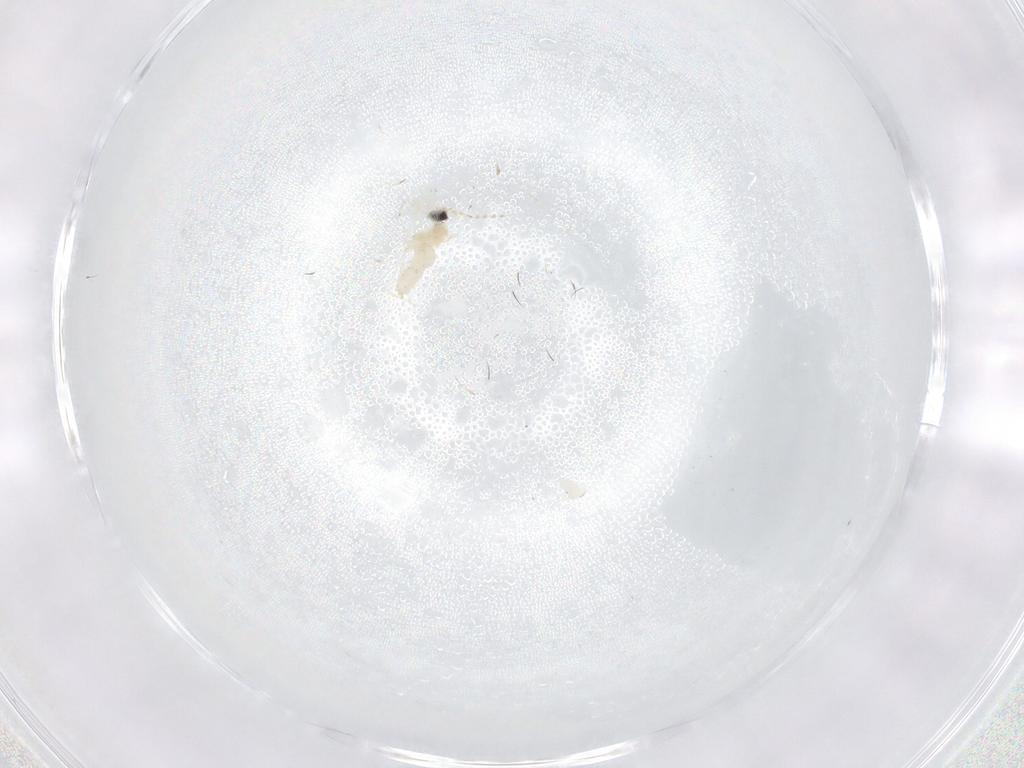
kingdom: Animalia
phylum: Arthropoda
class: Insecta
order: Diptera
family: Cecidomyiidae
